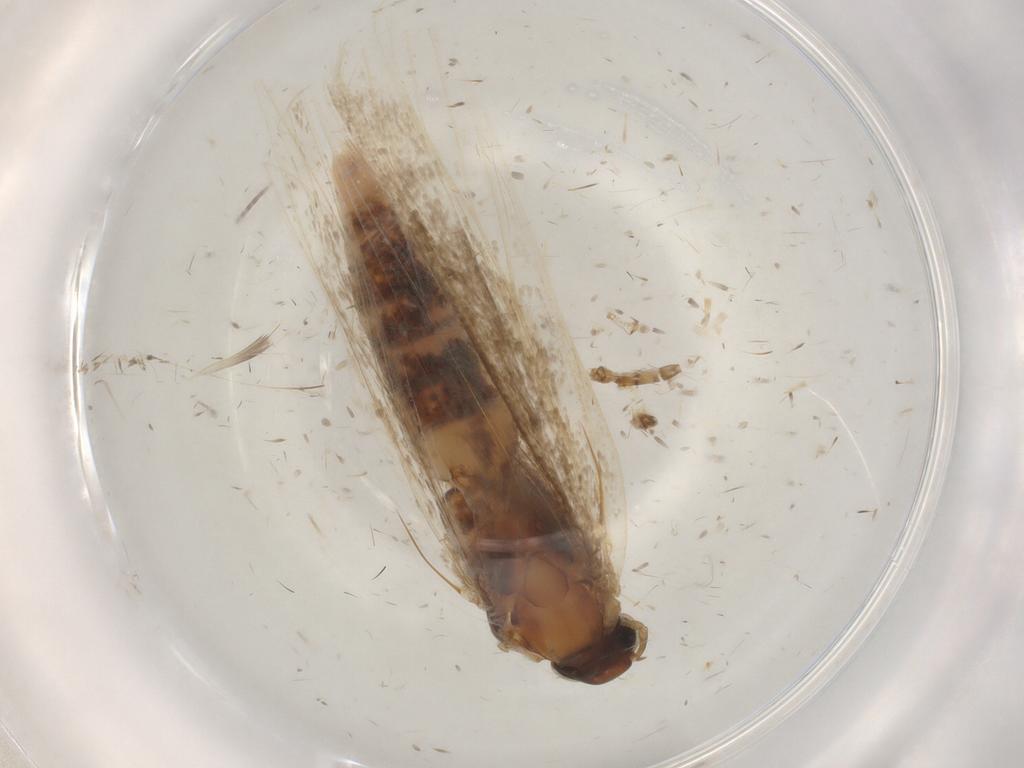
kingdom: Animalia
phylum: Arthropoda
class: Insecta
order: Lepidoptera
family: Gelechiidae
